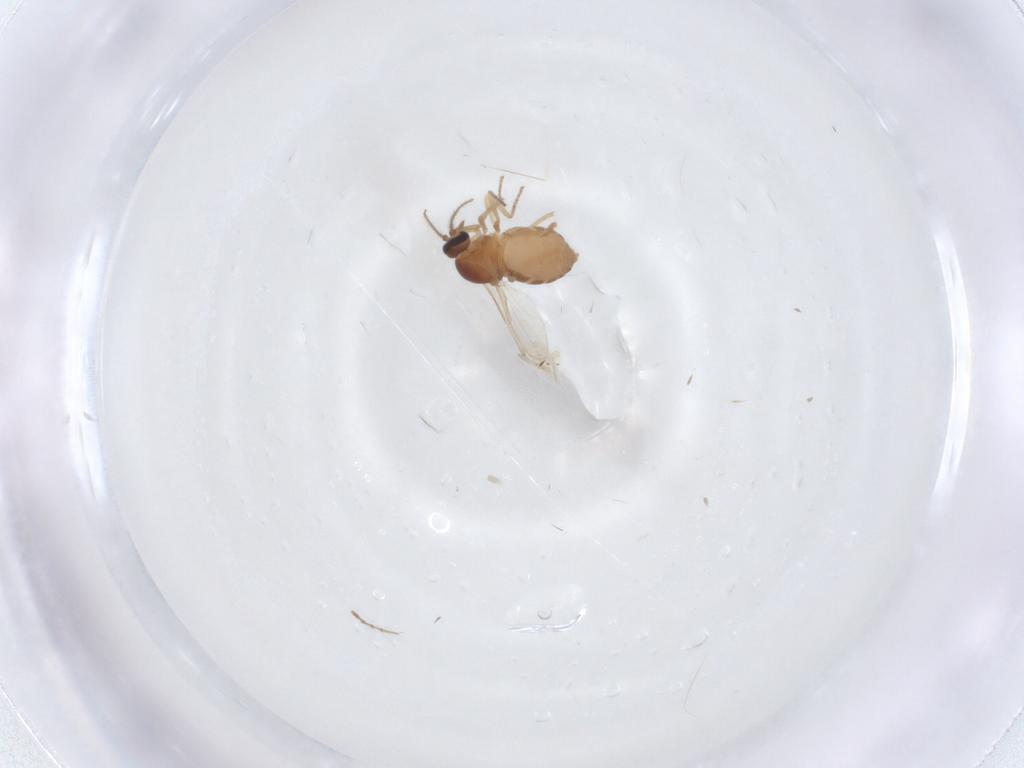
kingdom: Animalia
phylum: Arthropoda
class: Insecta
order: Diptera
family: Ceratopogonidae
